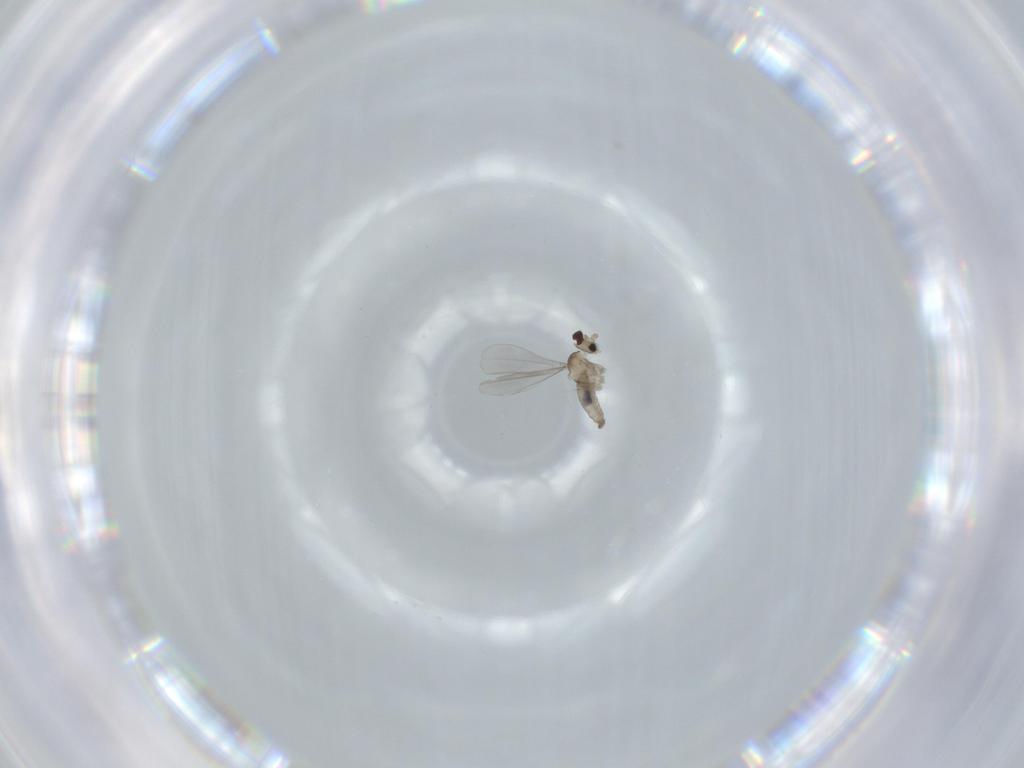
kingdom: Animalia
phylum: Arthropoda
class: Insecta
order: Diptera
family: Cecidomyiidae
